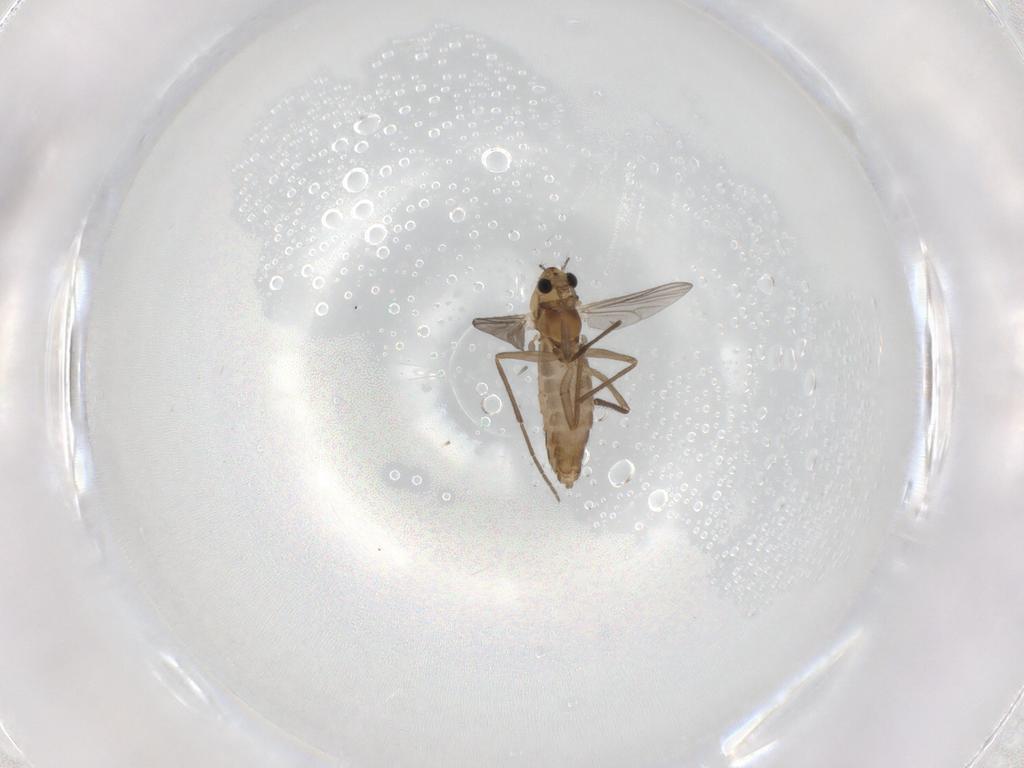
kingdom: Animalia
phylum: Arthropoda
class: Insecta
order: Diptera
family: Chironomidae
